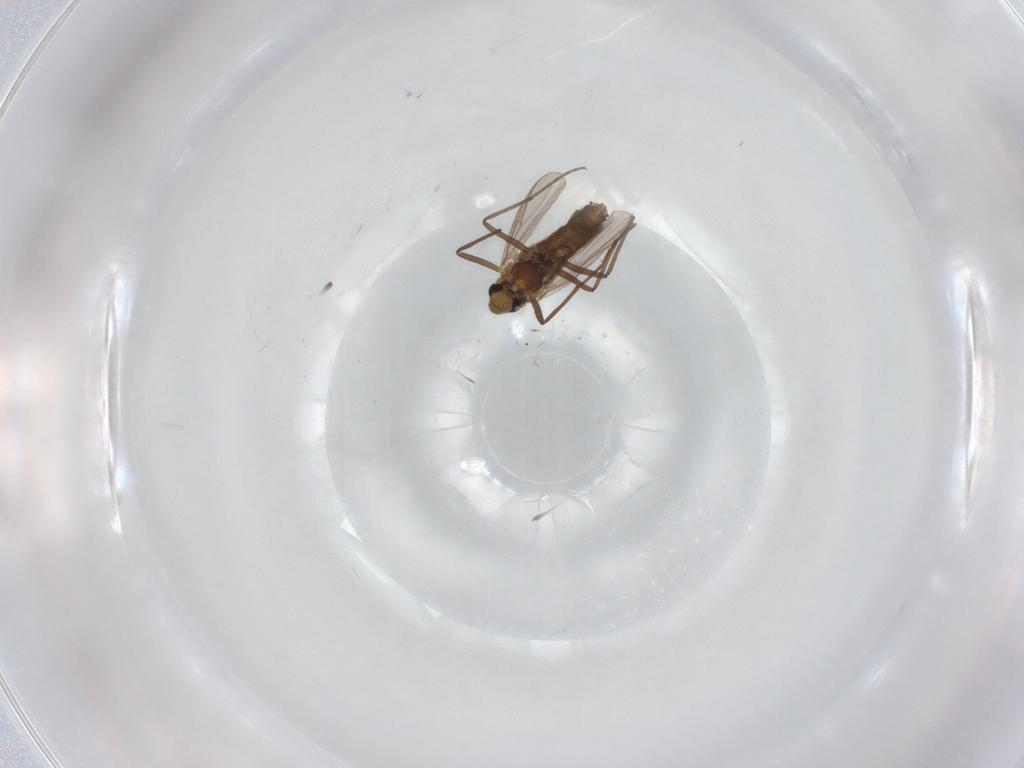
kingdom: Animalia
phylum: Arthropoda
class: Insecta
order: Diptera
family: Chironomidae
